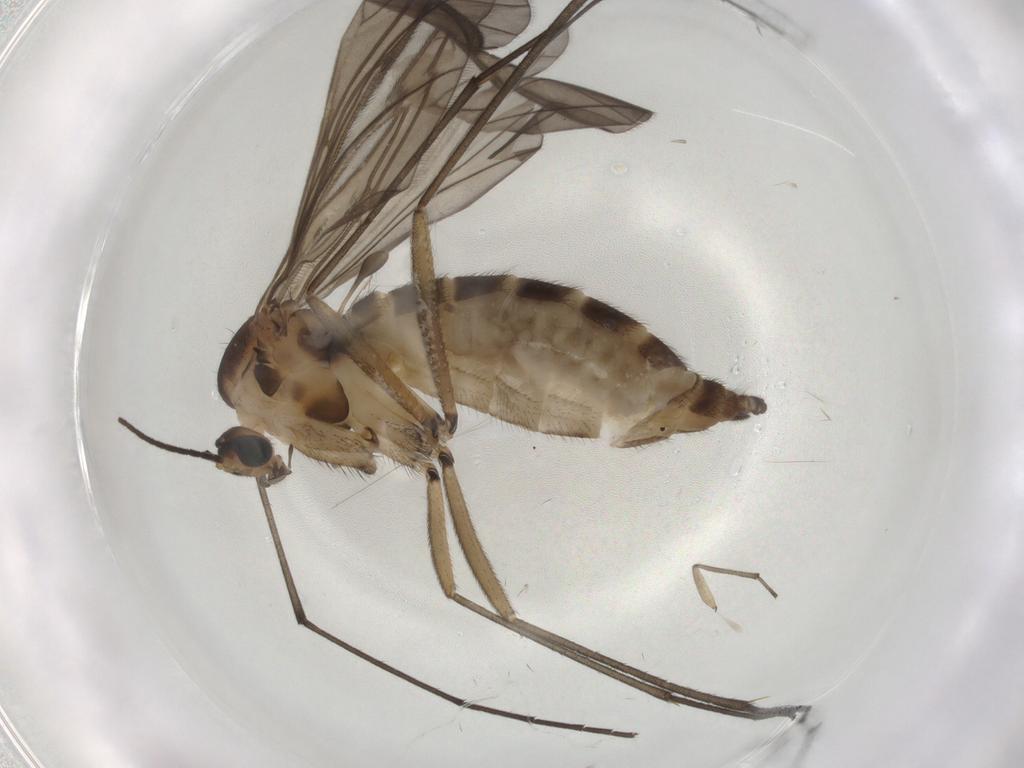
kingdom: Animalia
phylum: Arthropoda
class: Insecta
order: Diptera
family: Sciaridae
